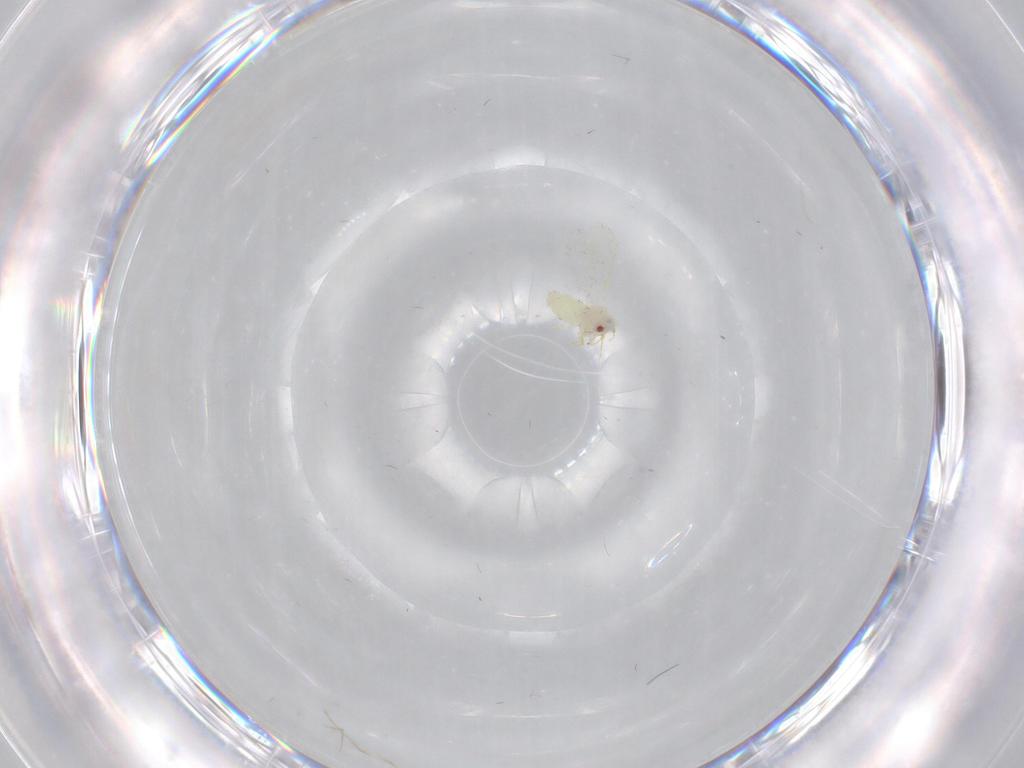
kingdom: Animalia
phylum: Arthropoda
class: Insecta
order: Hemiptera
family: Aleyrodidae
